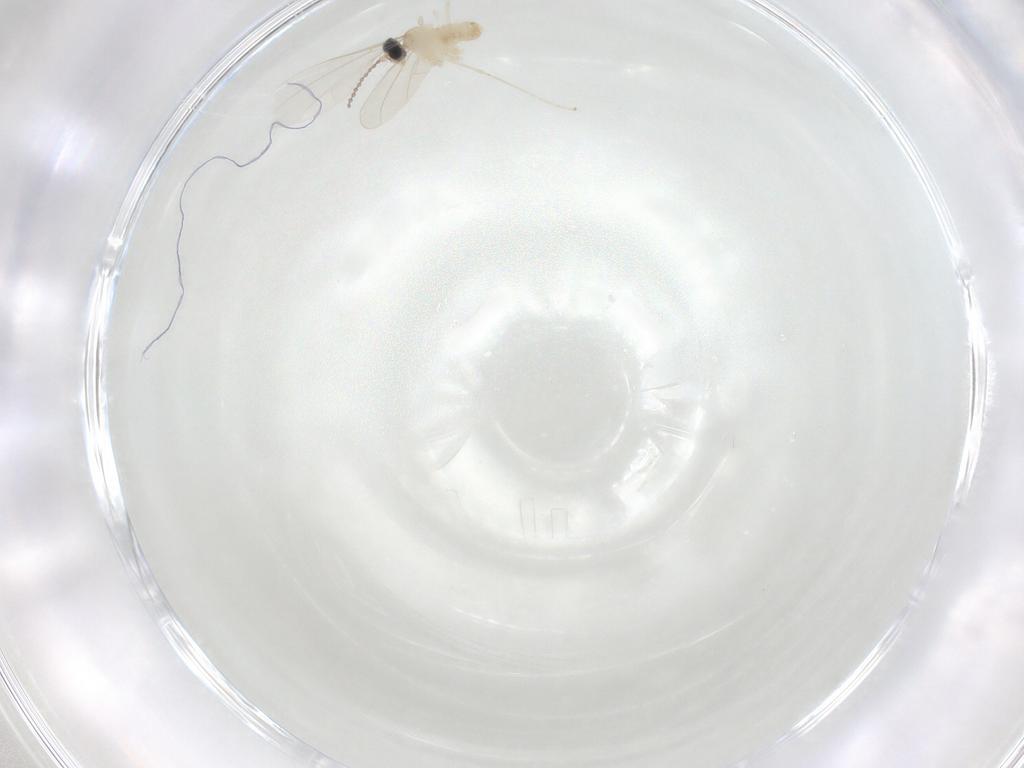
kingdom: Animalia
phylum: Arthropoda
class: Insecta
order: Diptera
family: Cecidomyiidae
